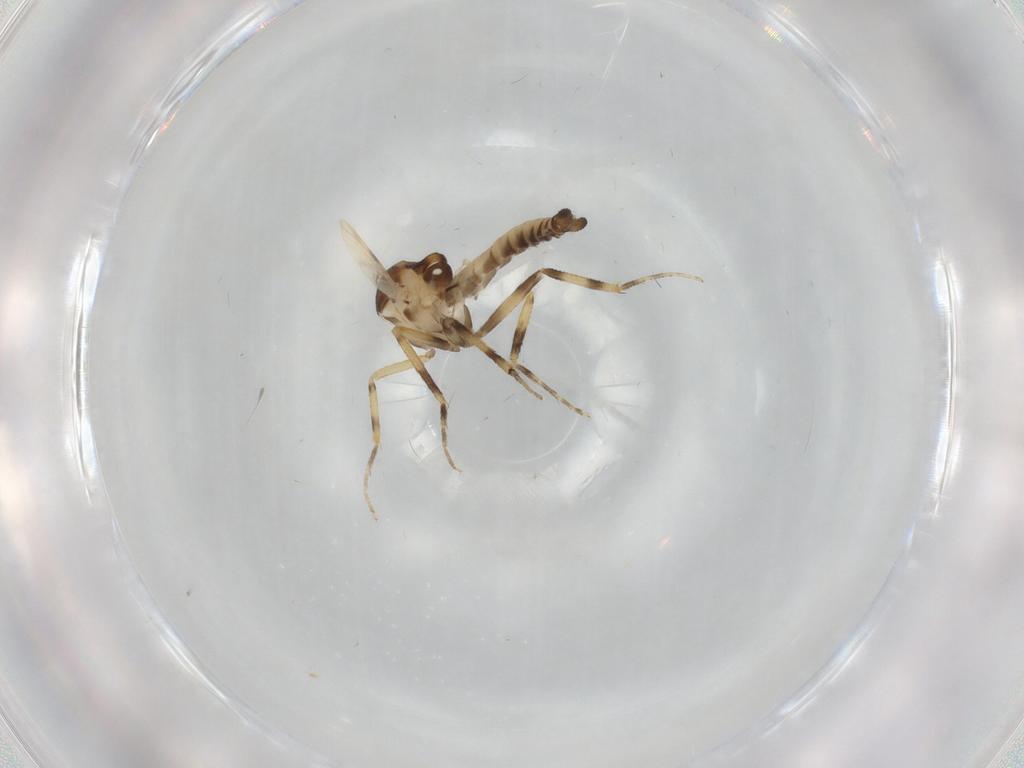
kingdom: Animalia
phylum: Arthropoda
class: Insecta
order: Diptera
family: Ceratopogonidae
